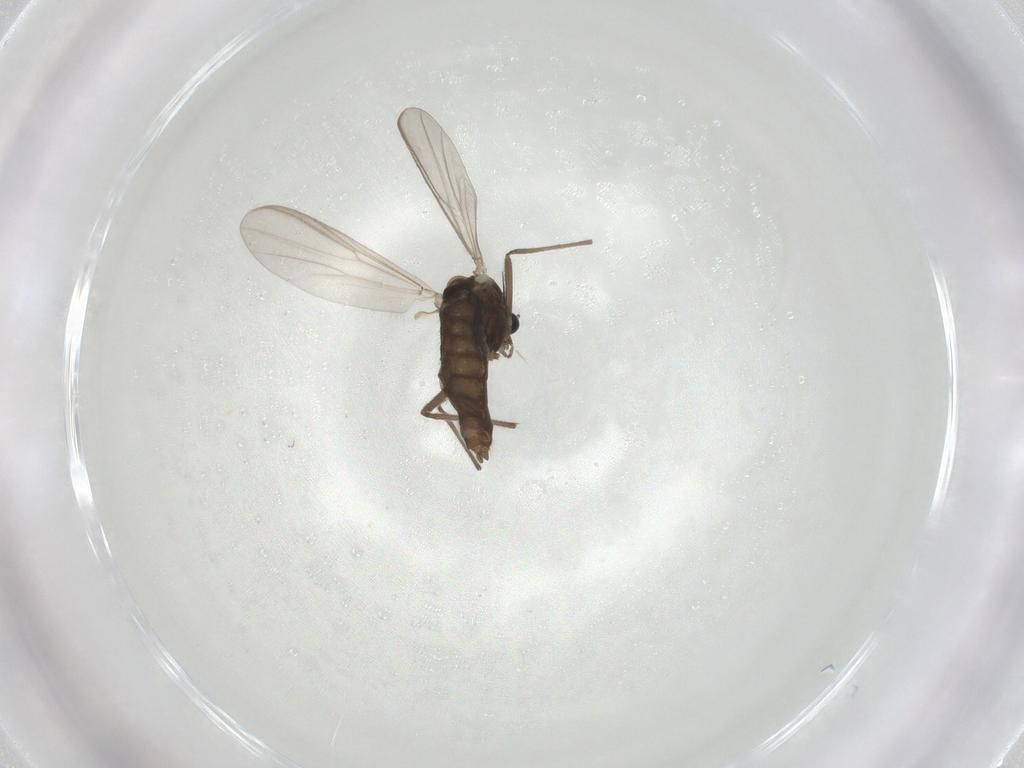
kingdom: Animalia
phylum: Arthropoda
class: Insecta
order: Diptera
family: Chironomidae
